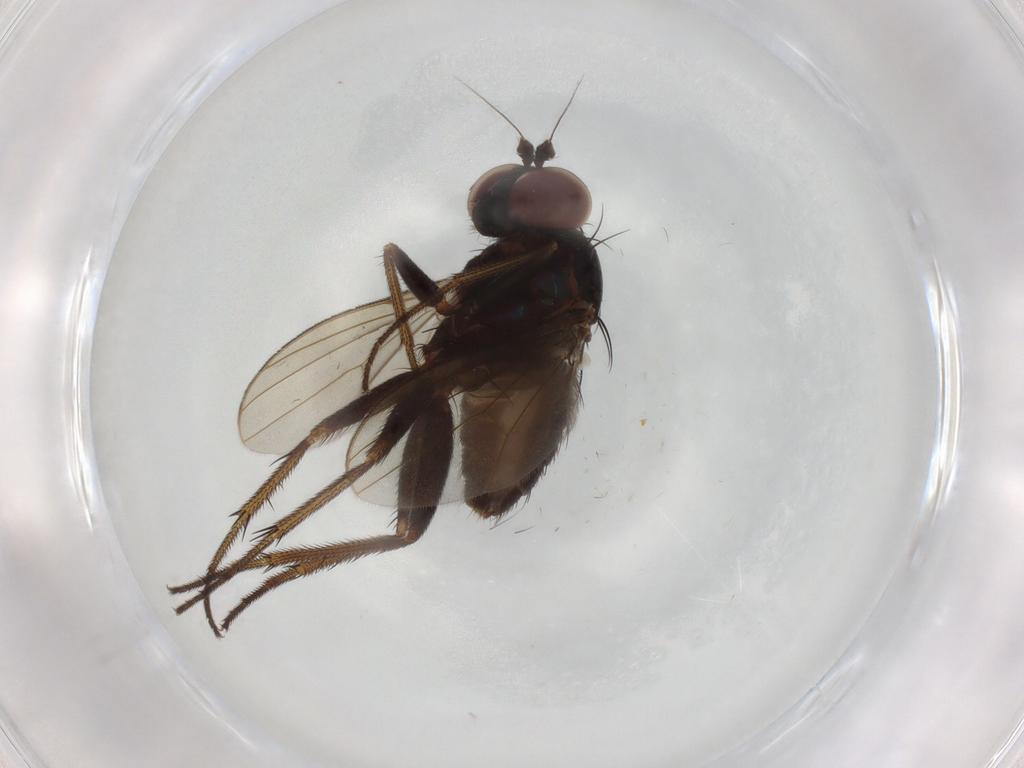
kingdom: Animalia
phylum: Arthropoda
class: Insecta
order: Diptera
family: Dolichopodidae
